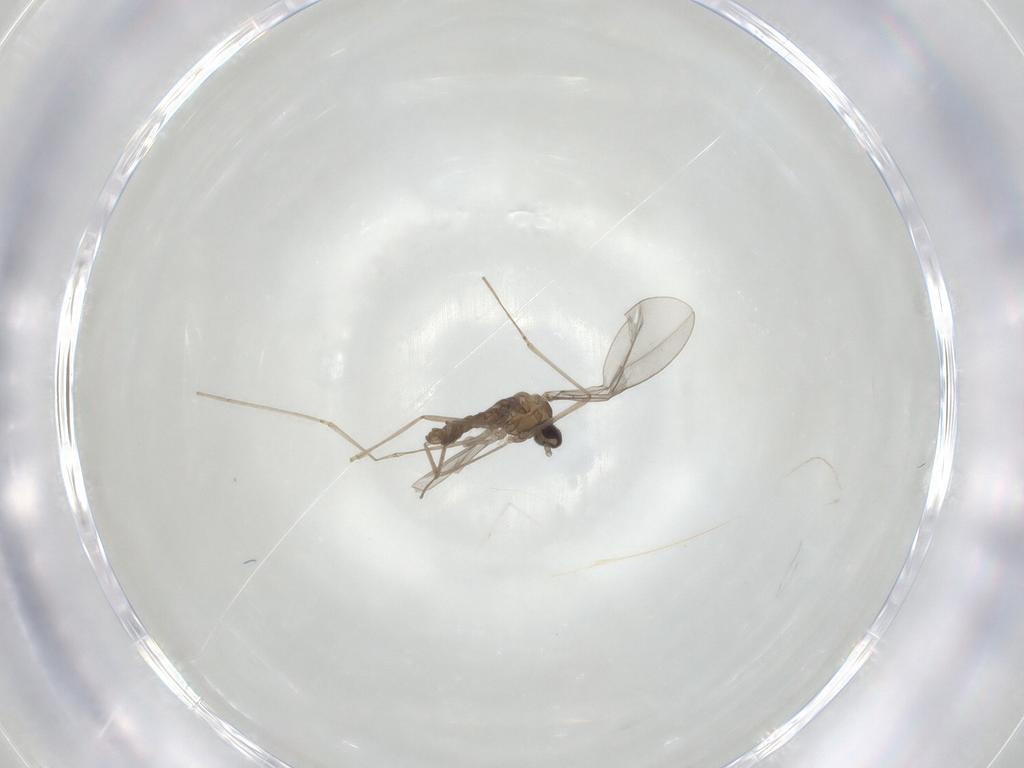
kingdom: Animalia
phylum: Arthropoda
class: Insecta
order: Diptera
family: Cecidomyiidae
